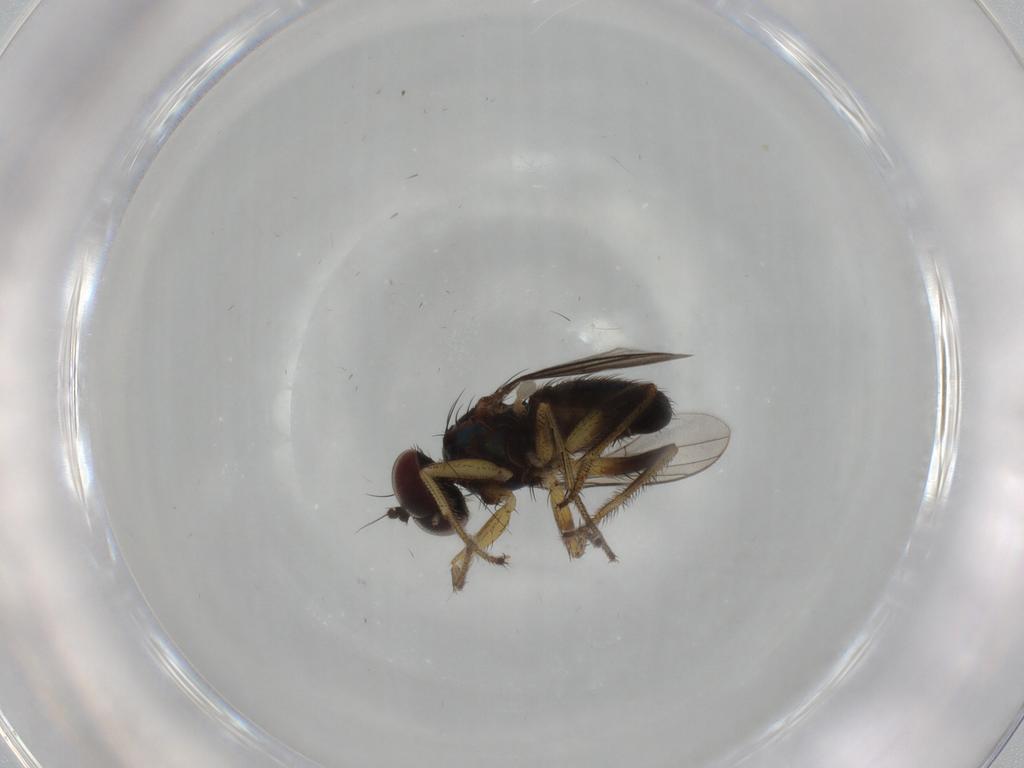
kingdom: Animalia
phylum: Arthropoda
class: Insecta
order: Diptera
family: Dolichopodidae
